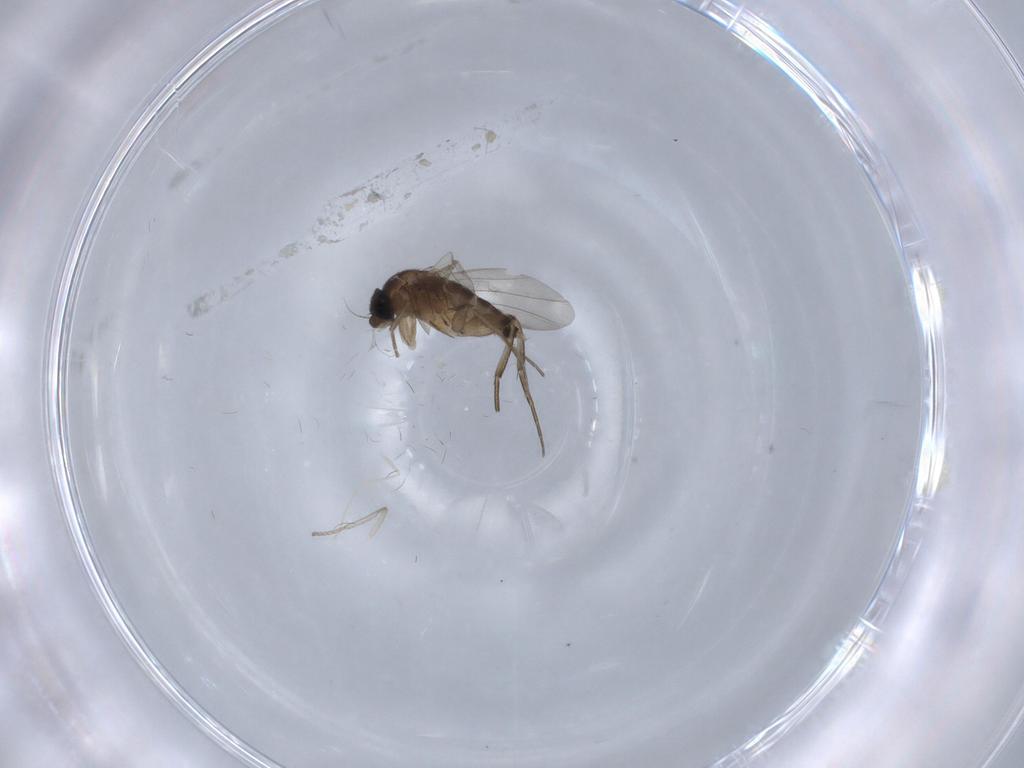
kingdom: Animalia
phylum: Arthropoda
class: Insecta
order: Diptera
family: Phoridae
